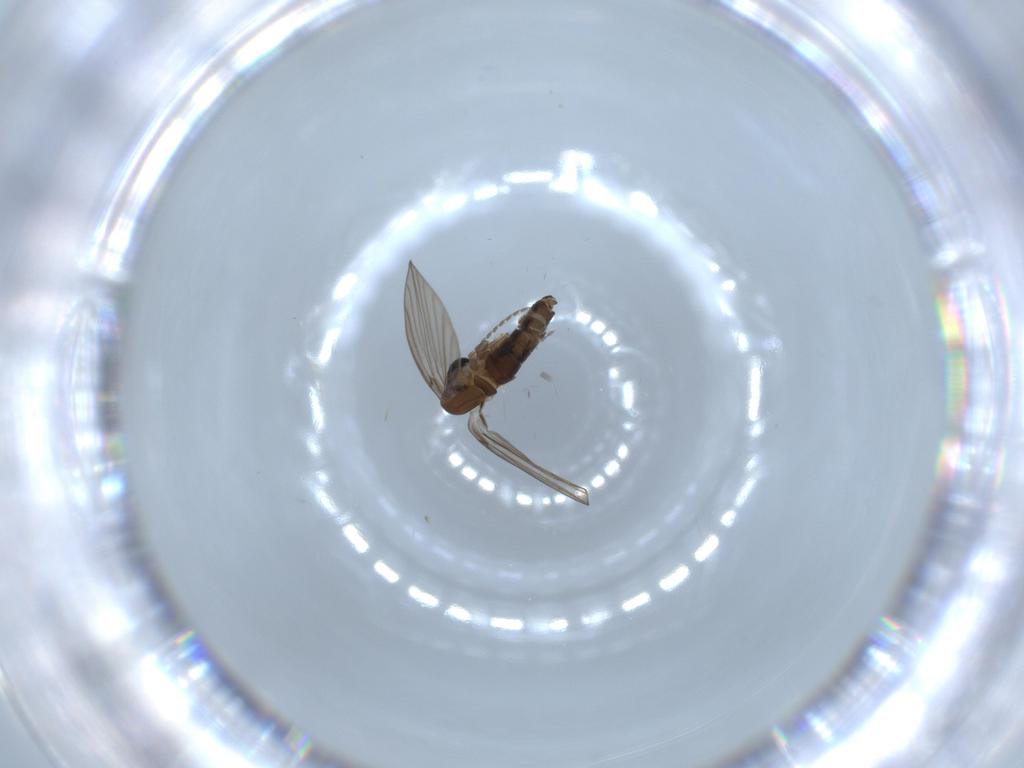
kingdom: Animalia
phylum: Arthropoda
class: Insecta
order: Diptera
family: Psychodidae
